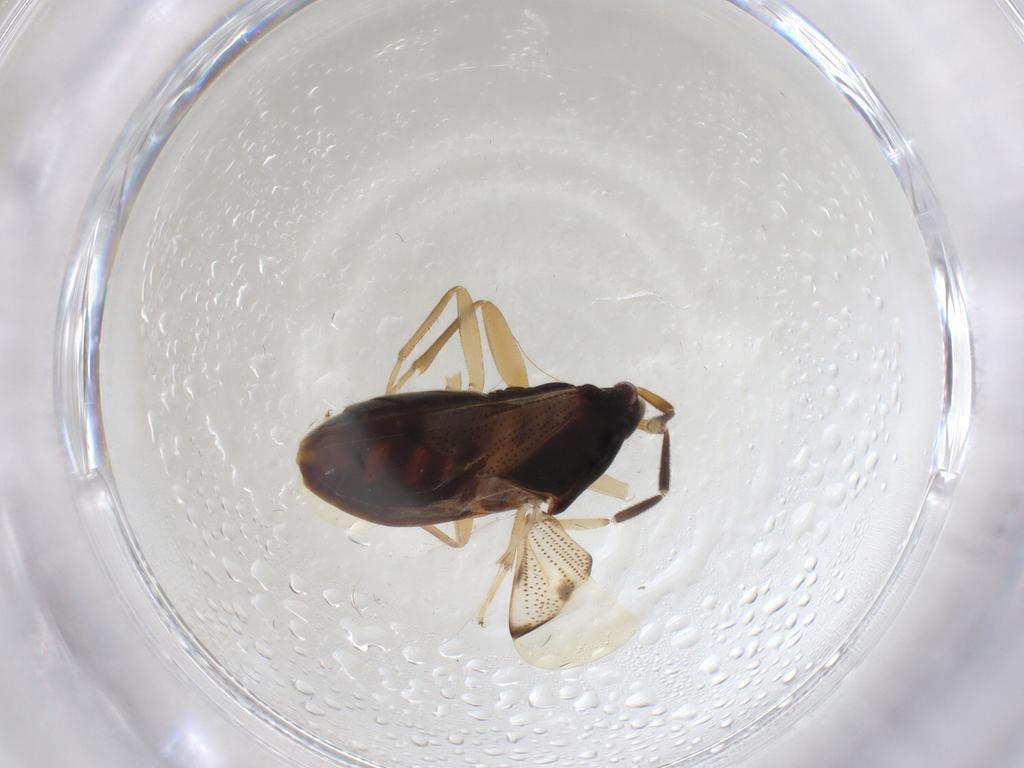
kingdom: Animalia
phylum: Arthropoda
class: Insecta
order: Hemiptera
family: Rhyparochromidae
